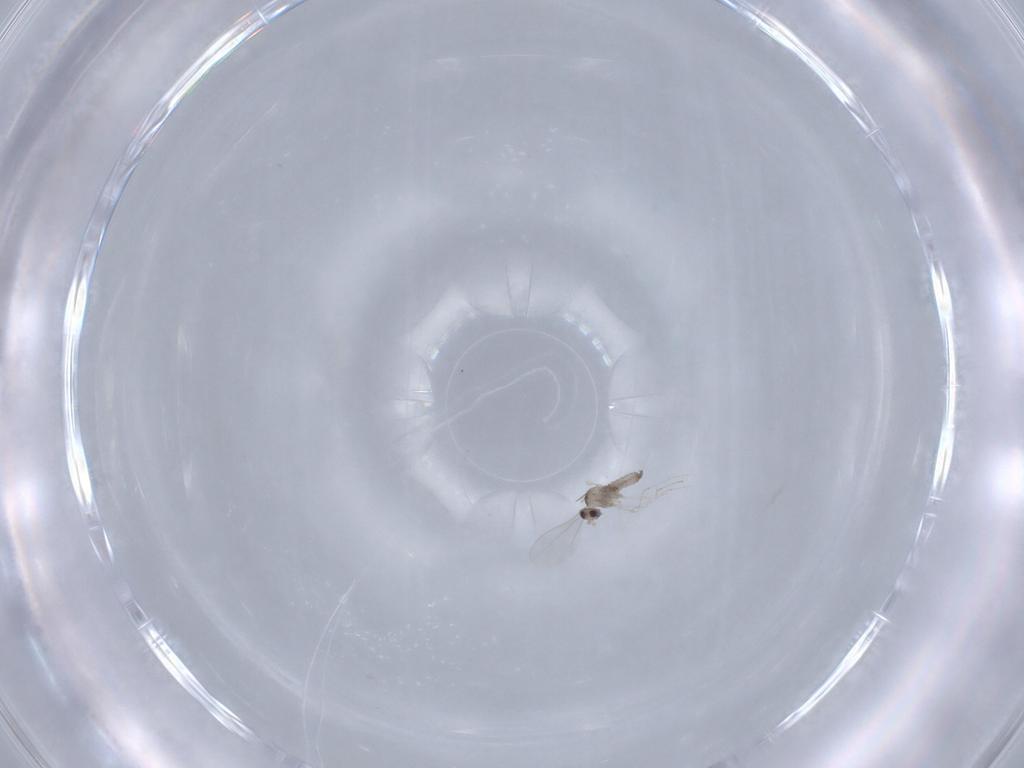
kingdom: Animalia
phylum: Arthropoda
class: Insecta
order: Diptera
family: Cecidomyiidae
